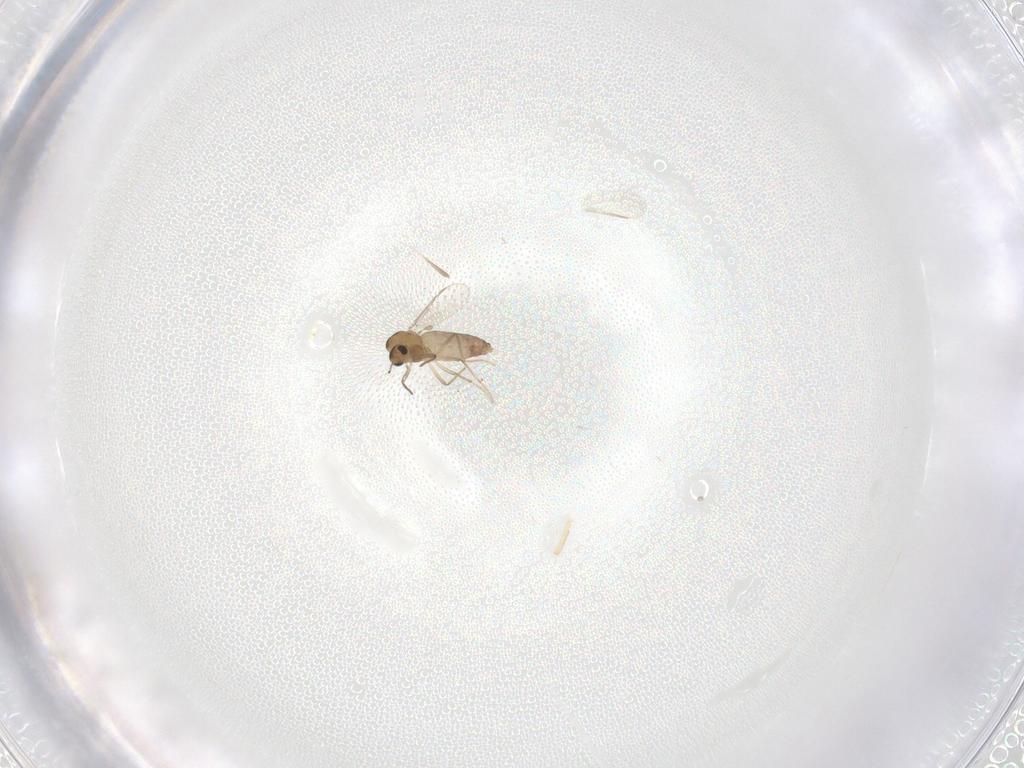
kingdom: Animalia
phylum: Arthropoda
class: Insecta
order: Diptera
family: Chironomidae
